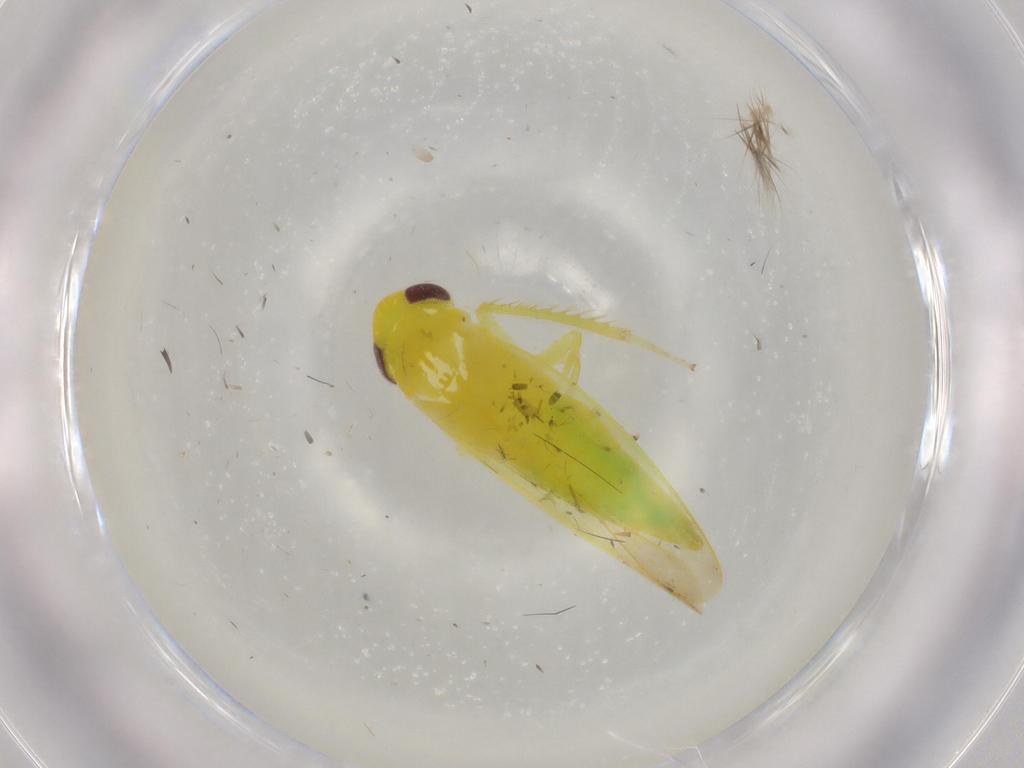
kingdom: Animalia
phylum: Arthropoda
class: Insecta
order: Hemiptera
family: Cicadellidae
